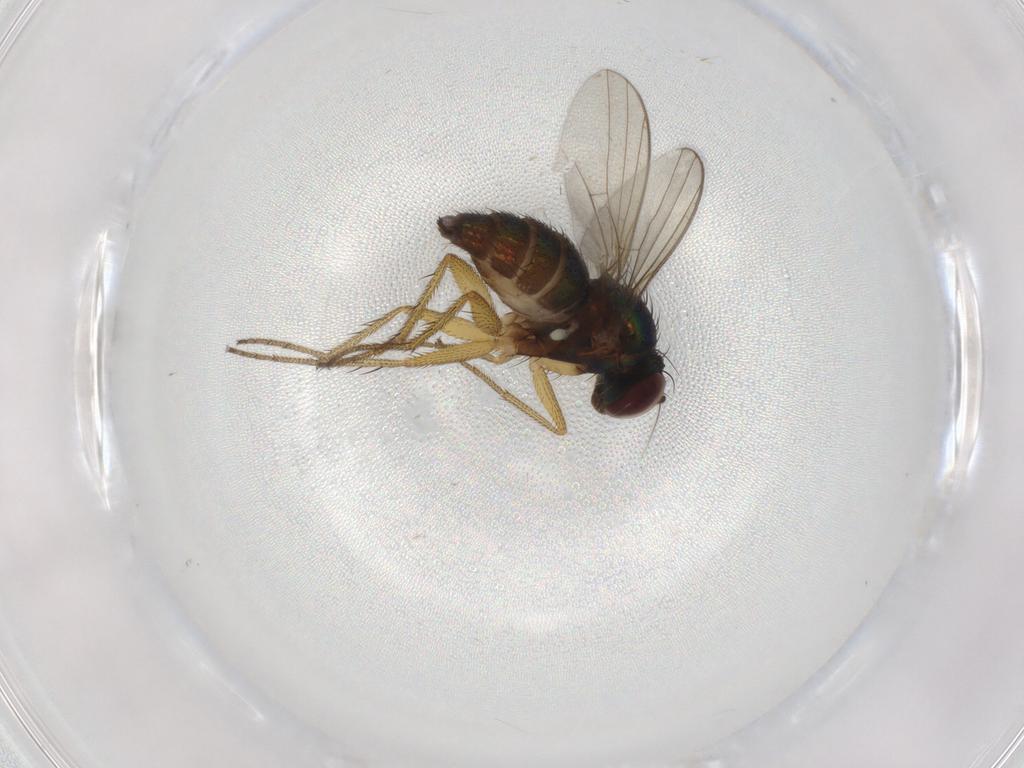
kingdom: Animalia
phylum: Arthropoda
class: Insecta
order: Diptera
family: Dolichopodidae
